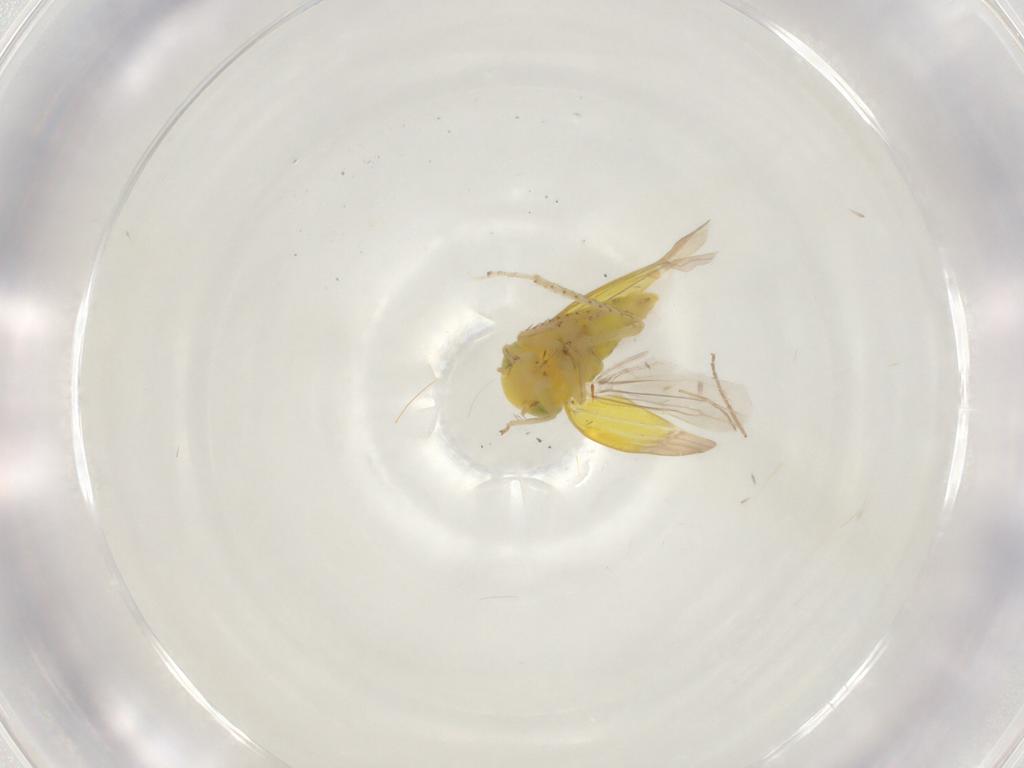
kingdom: Animalia
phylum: Arthropoda
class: Insecta
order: Hemiptera
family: Cicadellidae
